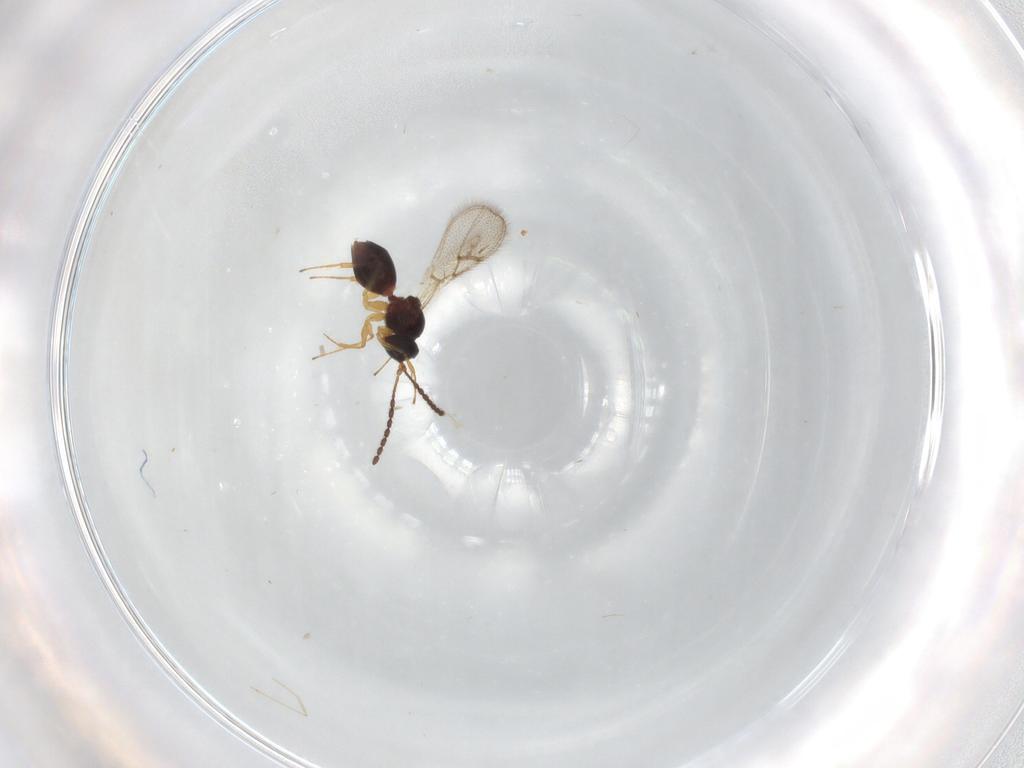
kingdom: Animalia
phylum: Arthropoda
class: Insecta
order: Hymenoptera
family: Figitidae
